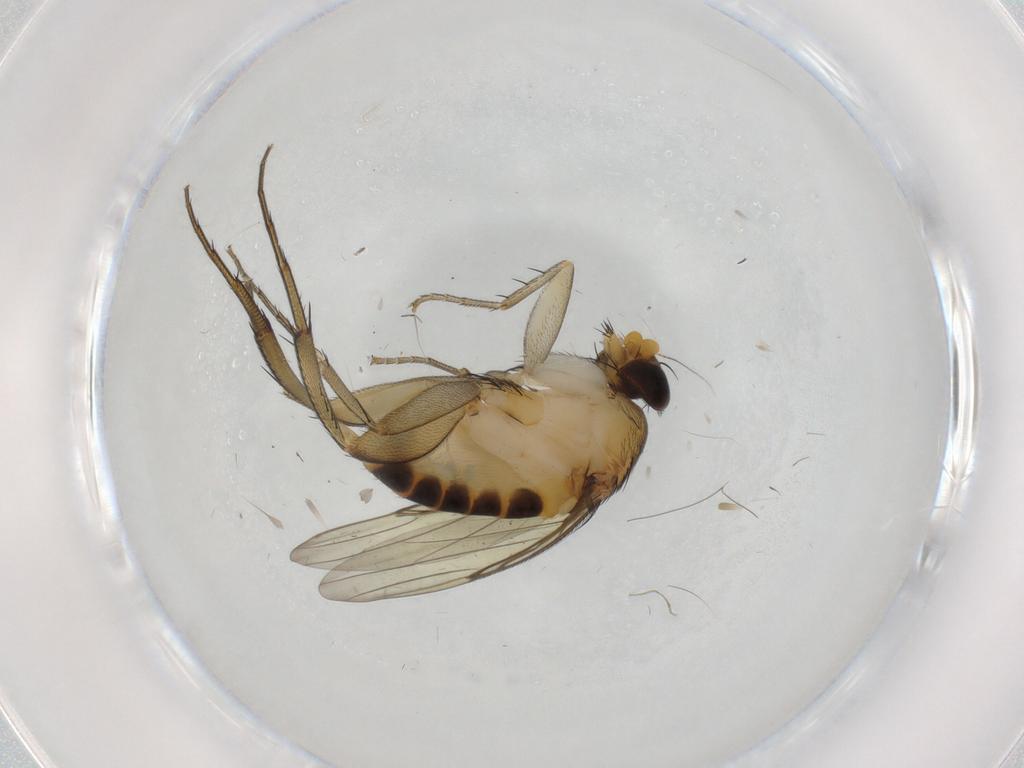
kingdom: Animalia
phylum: Arthropoda
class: Insecta
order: Diptera
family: Phoridae
